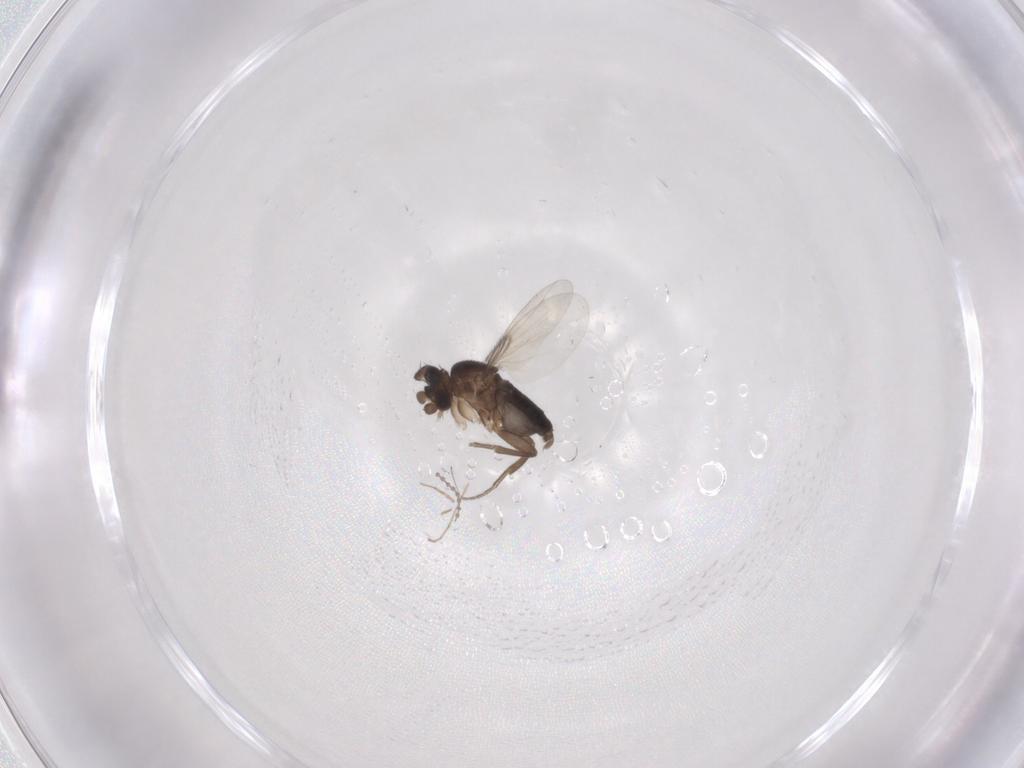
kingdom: Animalia
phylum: Arthropoda
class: Insecta
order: Diptera
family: Phoridae
